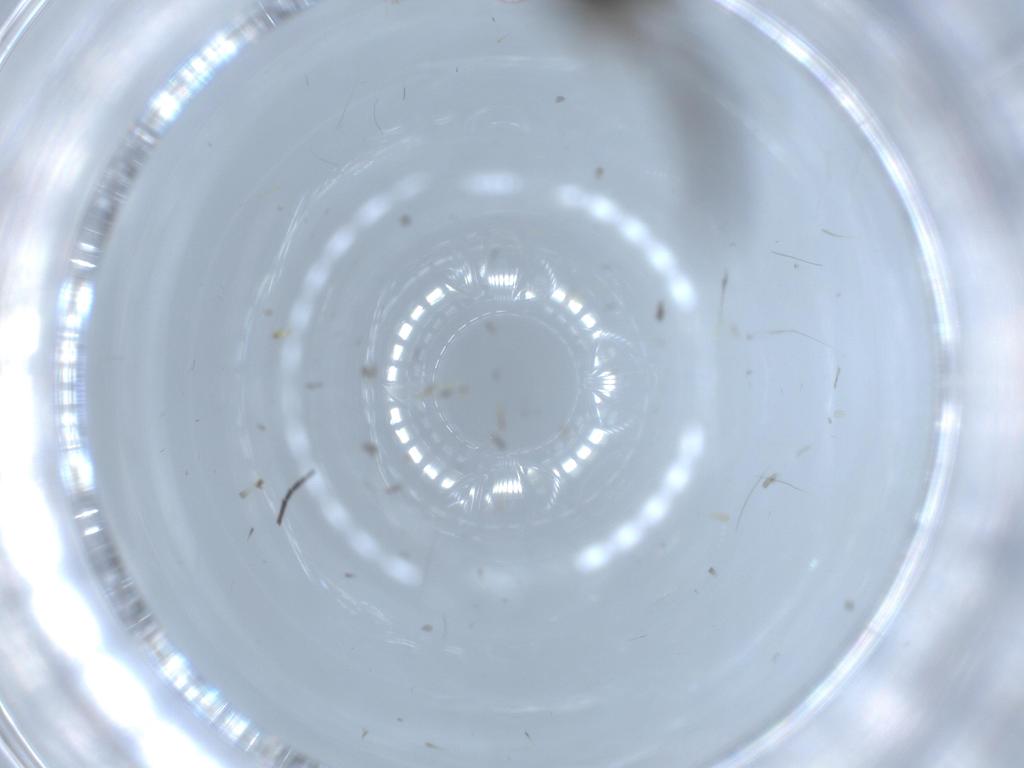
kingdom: Animalia
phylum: Arthropoda
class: Insecta
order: Diptera
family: Sciaridae
